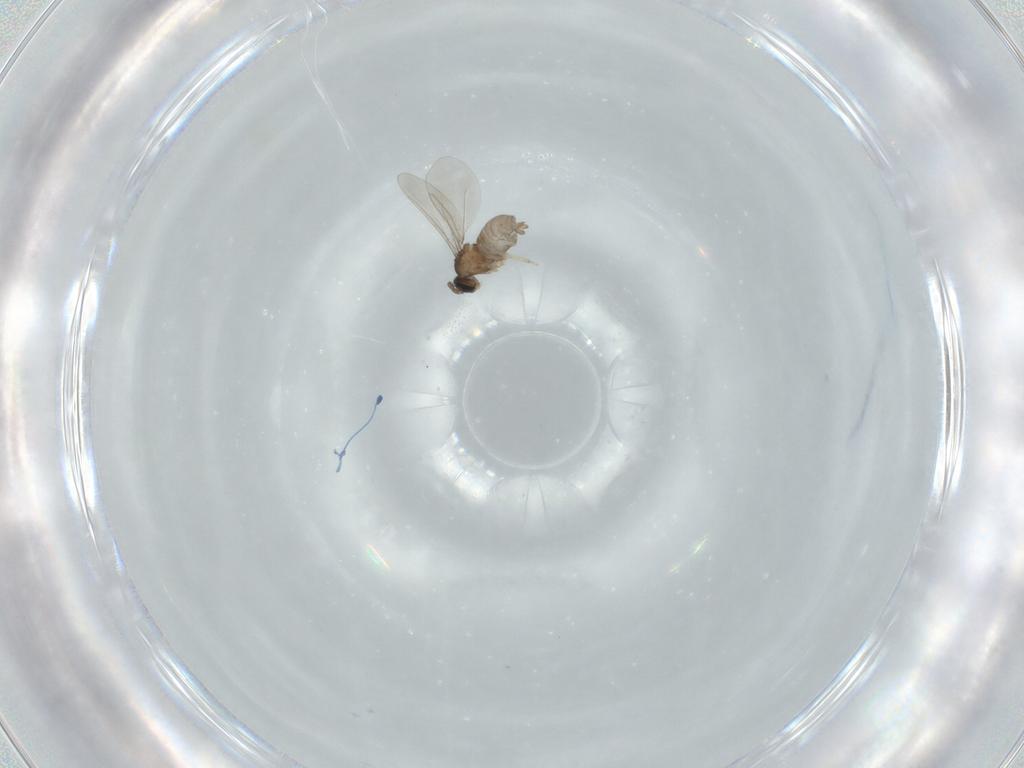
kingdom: Animalia
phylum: Arthropoda
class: Insecta
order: Diptera
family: Cecidomyiidae
